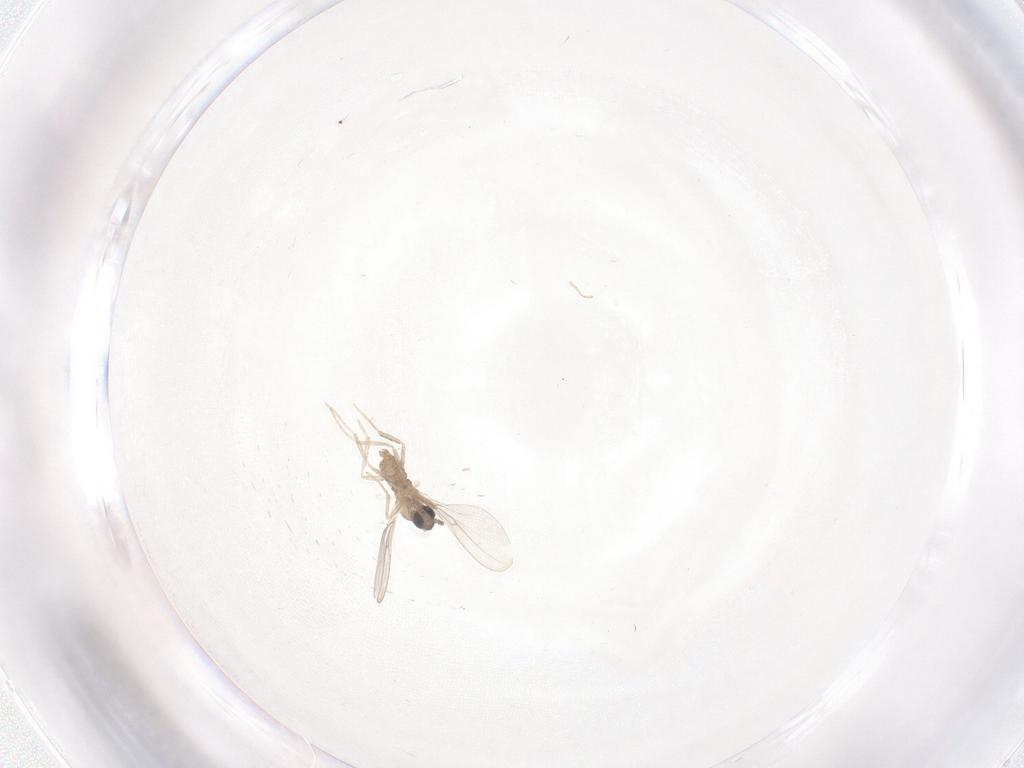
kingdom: Animalia
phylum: Arthropoda
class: Insecta
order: Diptera
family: Cecidomyiidae
